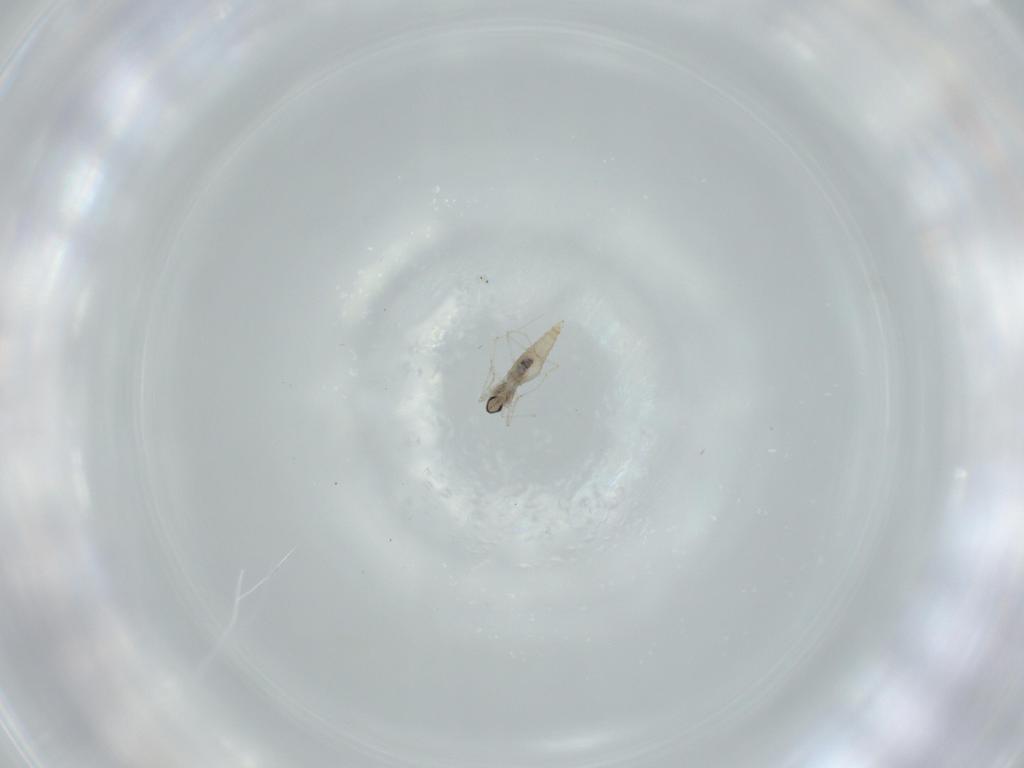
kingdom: Animalia
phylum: Arthropoda
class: Insecta
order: Diptera
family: Cecidomyiidae
